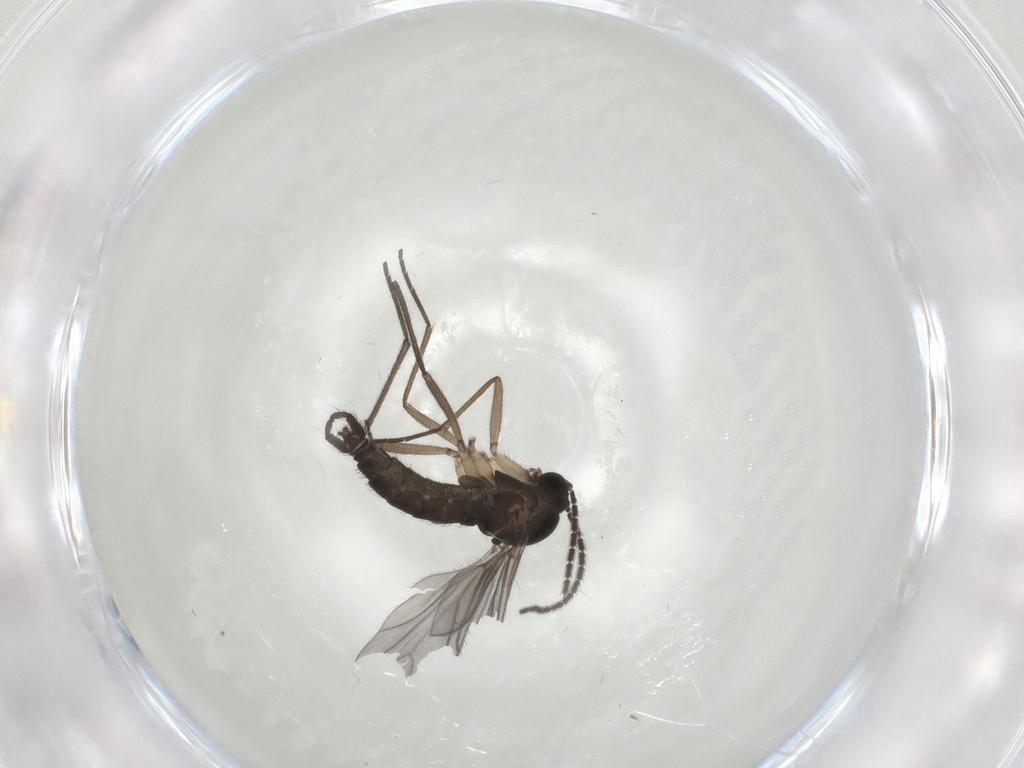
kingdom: Animalia
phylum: Arthropoda
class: Insecta
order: Diptera
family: Sciaridae
